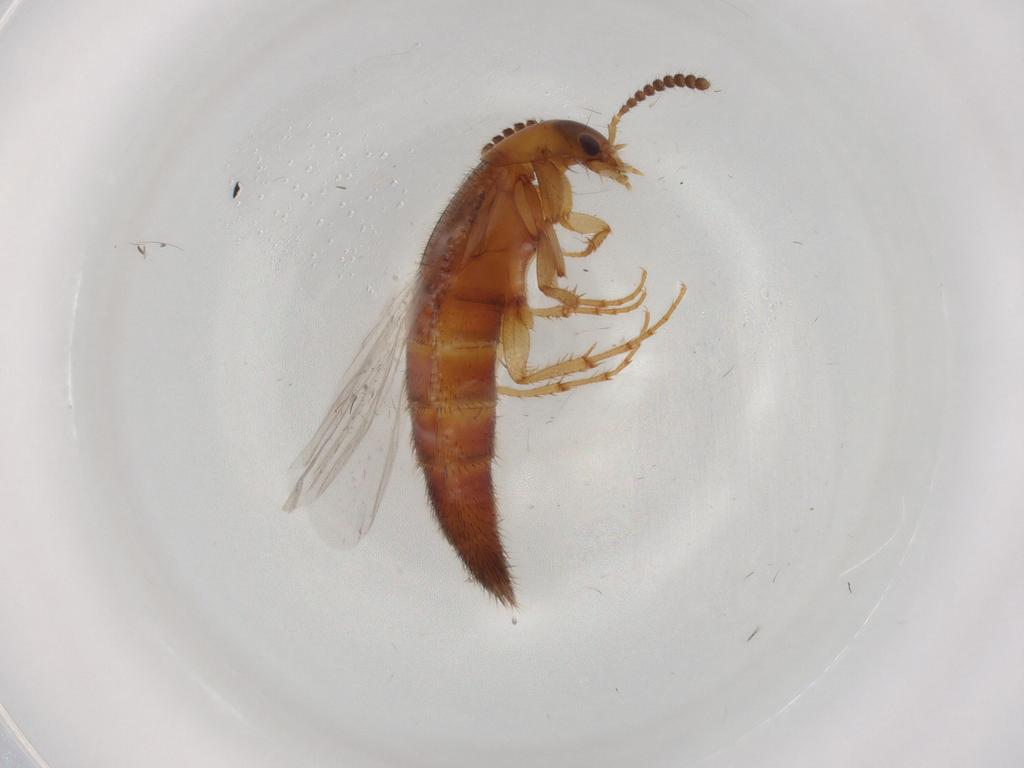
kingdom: Animalia
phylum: Arthropoda
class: Insecta
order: Coleoptera
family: Staphylinidae
